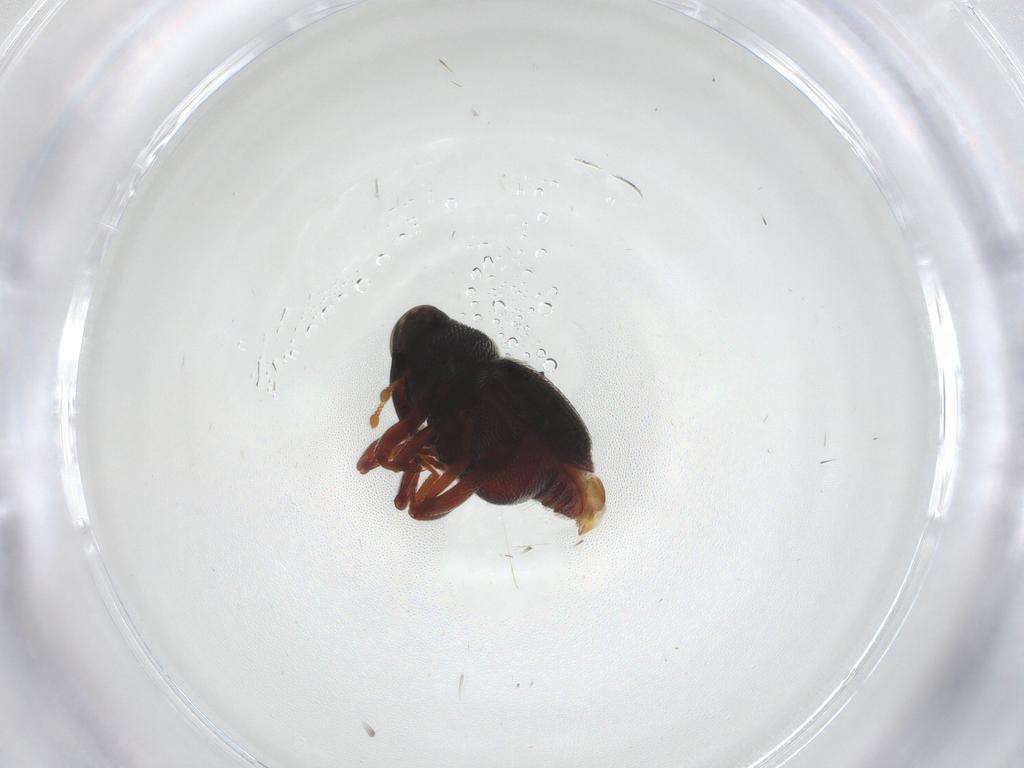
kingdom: Animalia
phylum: Arthropoda
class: Insecta
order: Coleoptera
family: Curculionidae
